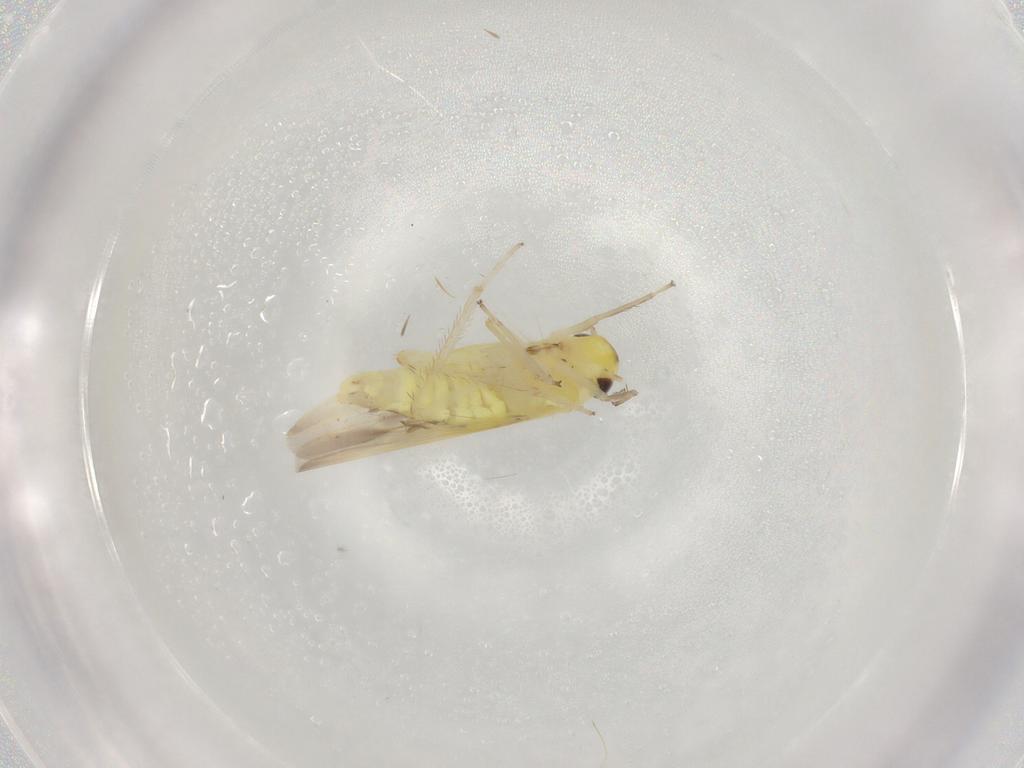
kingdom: Animalia
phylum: Arthropoda
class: Insecta
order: Hemiptera
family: Cicadellidae
